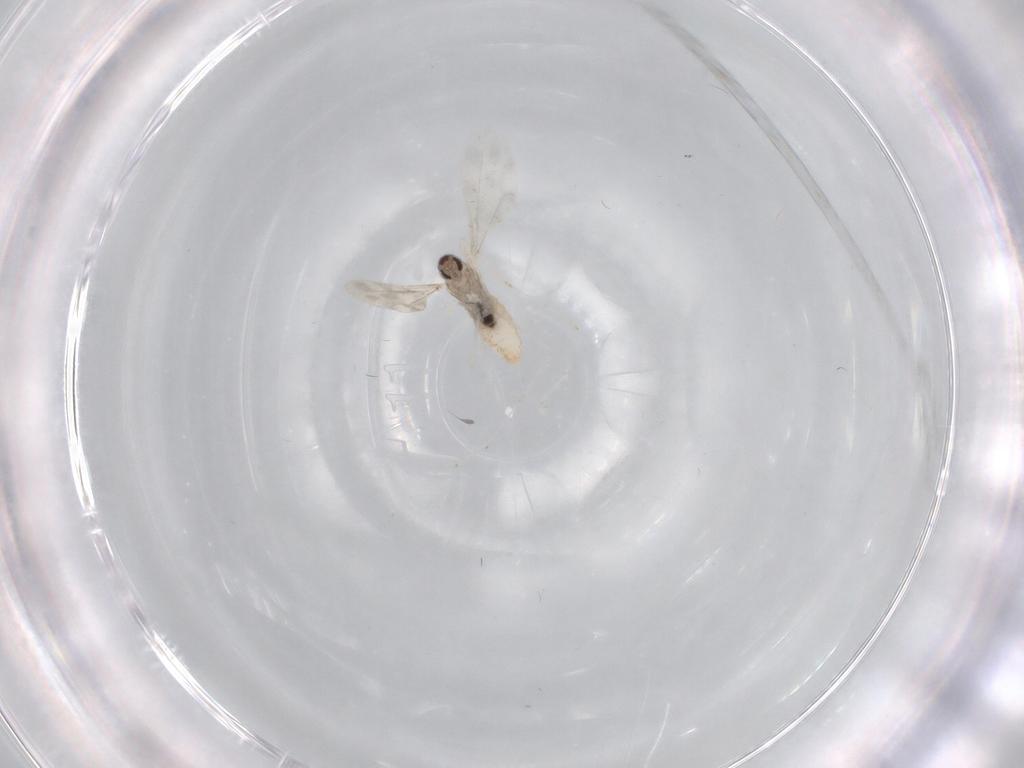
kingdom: Animalia
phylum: Arthropoda
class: Insecta
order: Diptera
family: Cecidomyiidae
